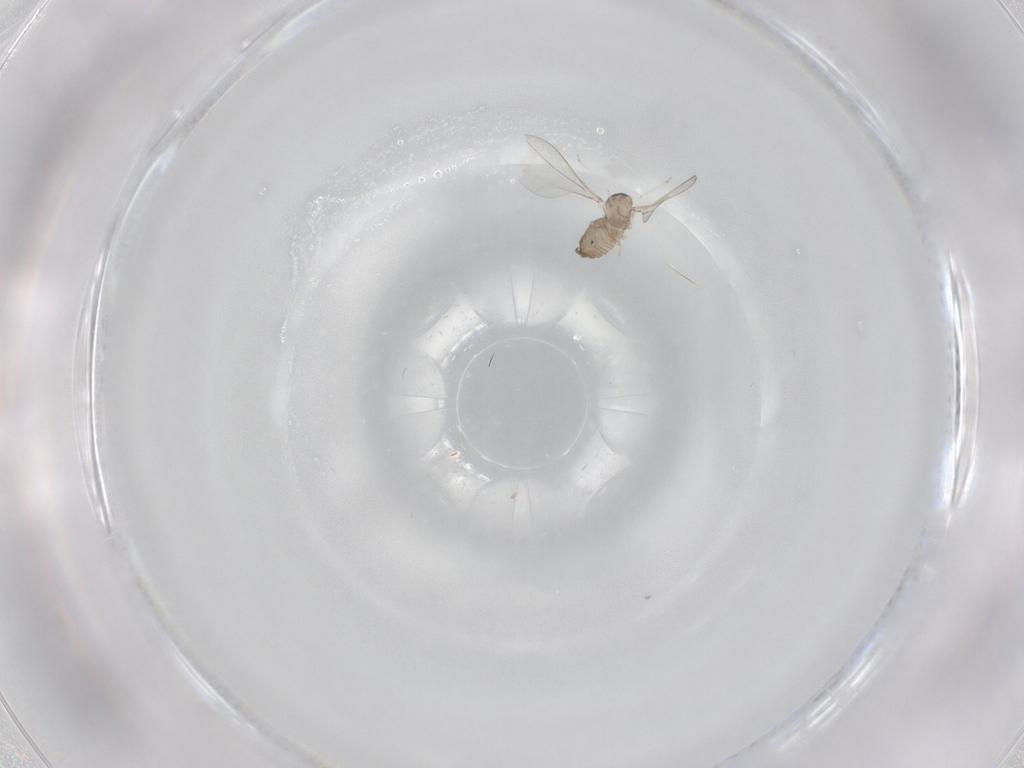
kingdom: Animalia
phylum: Arthropoda
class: Insecta
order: Diptera
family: Cecidomyiidae
